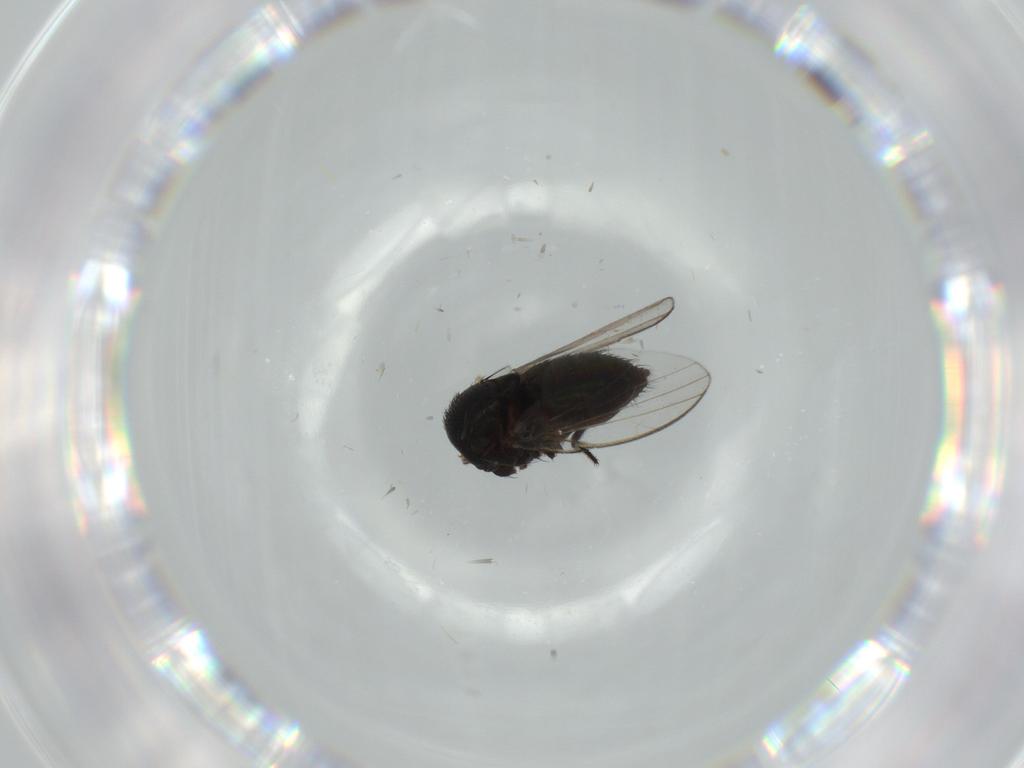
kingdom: Animalia
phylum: Arthropoda
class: Insecta
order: Diptera
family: Milichiidae
